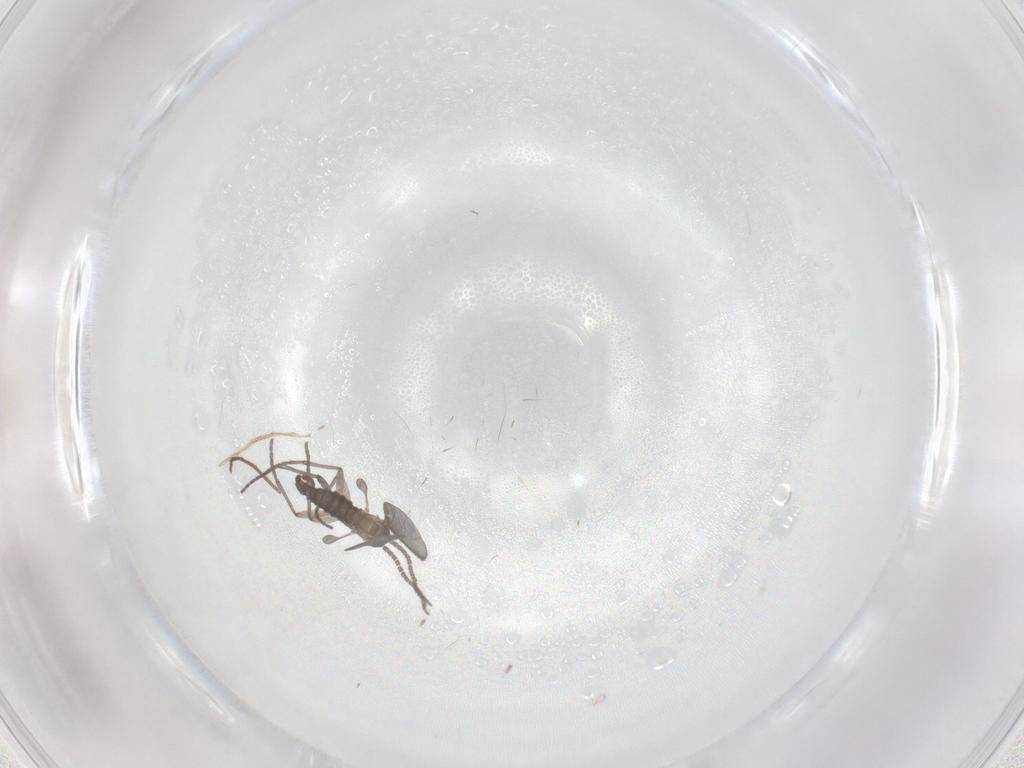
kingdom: Animalia
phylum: Arthropoda
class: Insecta
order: Diptera
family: Sciaridae
